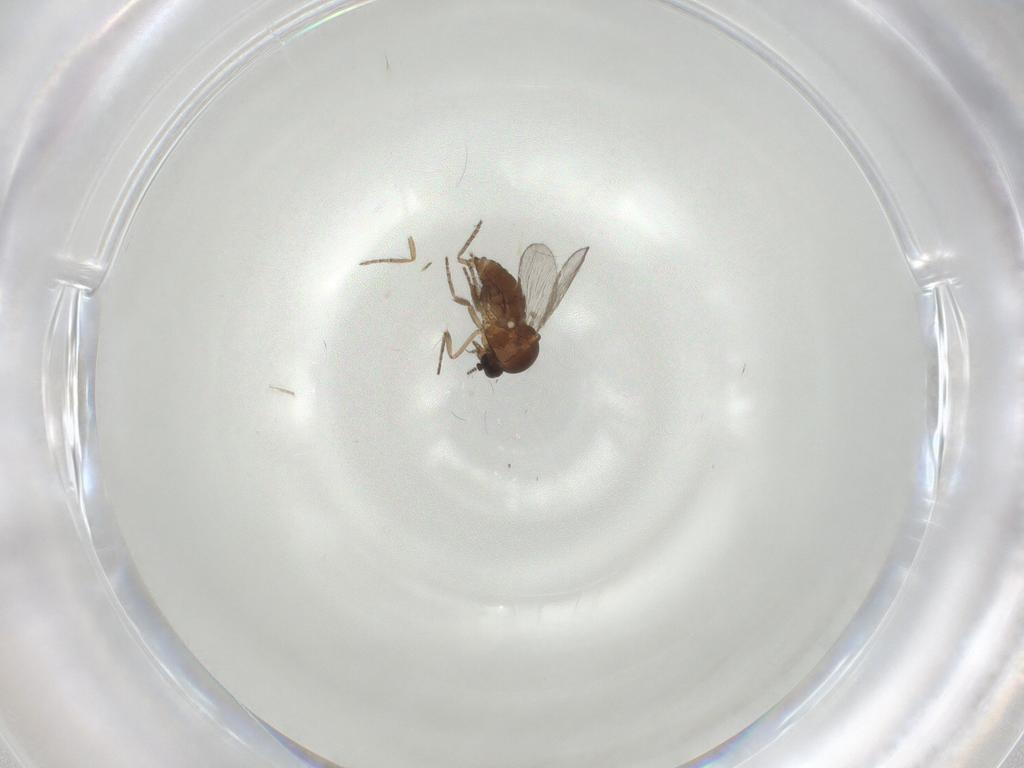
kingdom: Animalia
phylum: Arthropoda
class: Insecta
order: Diptera
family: Ceratopogonidae
